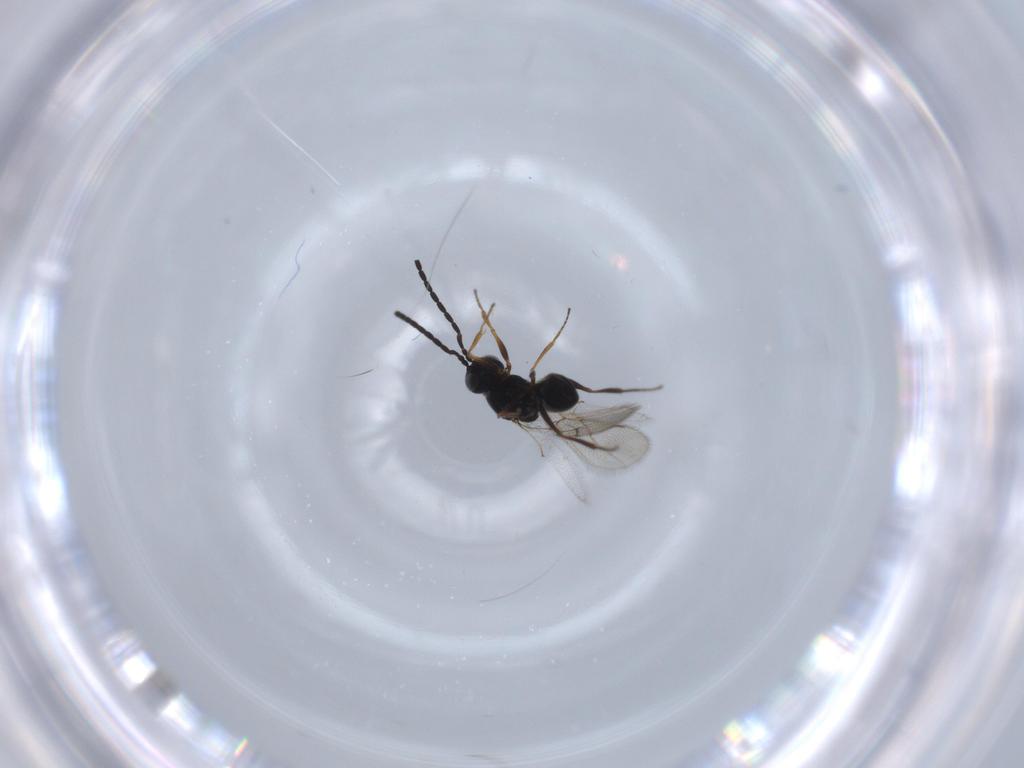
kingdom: Animalia
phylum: Arthropoda
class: Insecta
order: Hymenoptera
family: Figitidae
